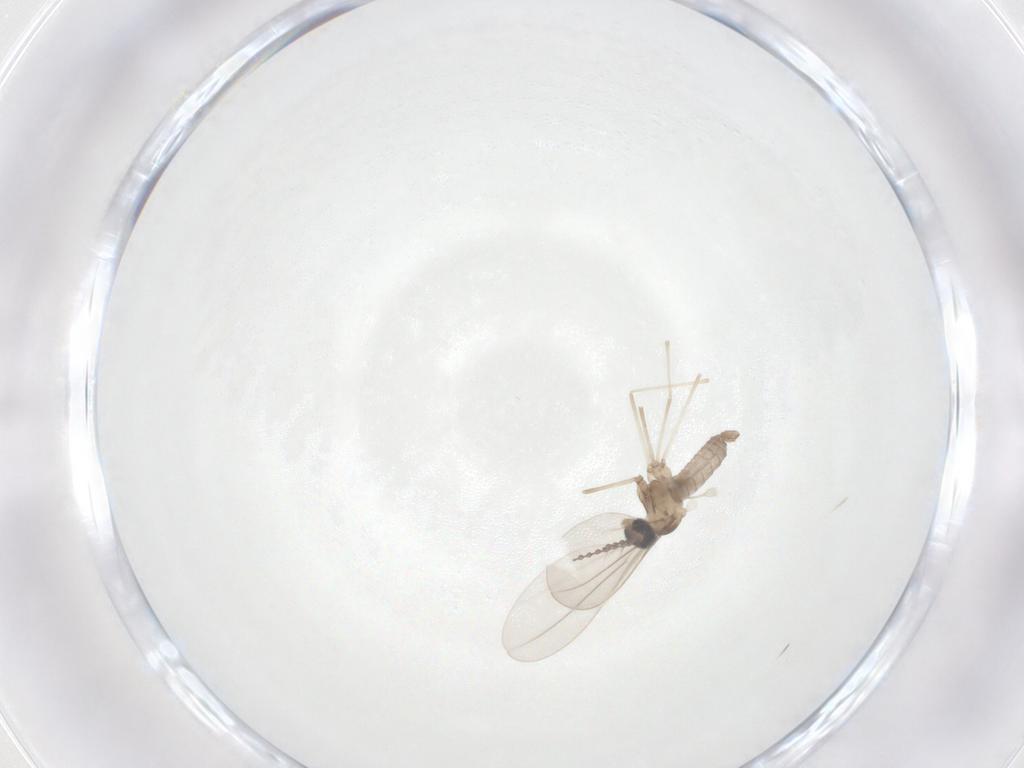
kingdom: Animalia
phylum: Arthropoda
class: Insecta
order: Diptera
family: Cecidomyiidae
